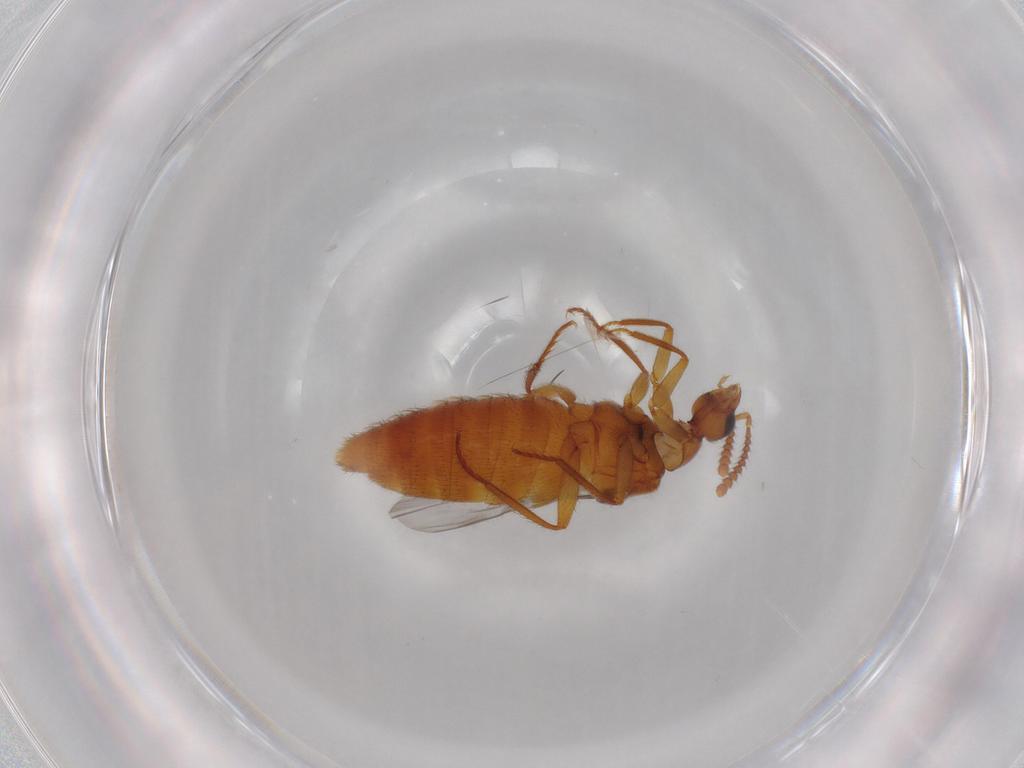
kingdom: Animalia
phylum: Arthropoda
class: Insecta
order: Coleoptera
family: Staphylinidae
